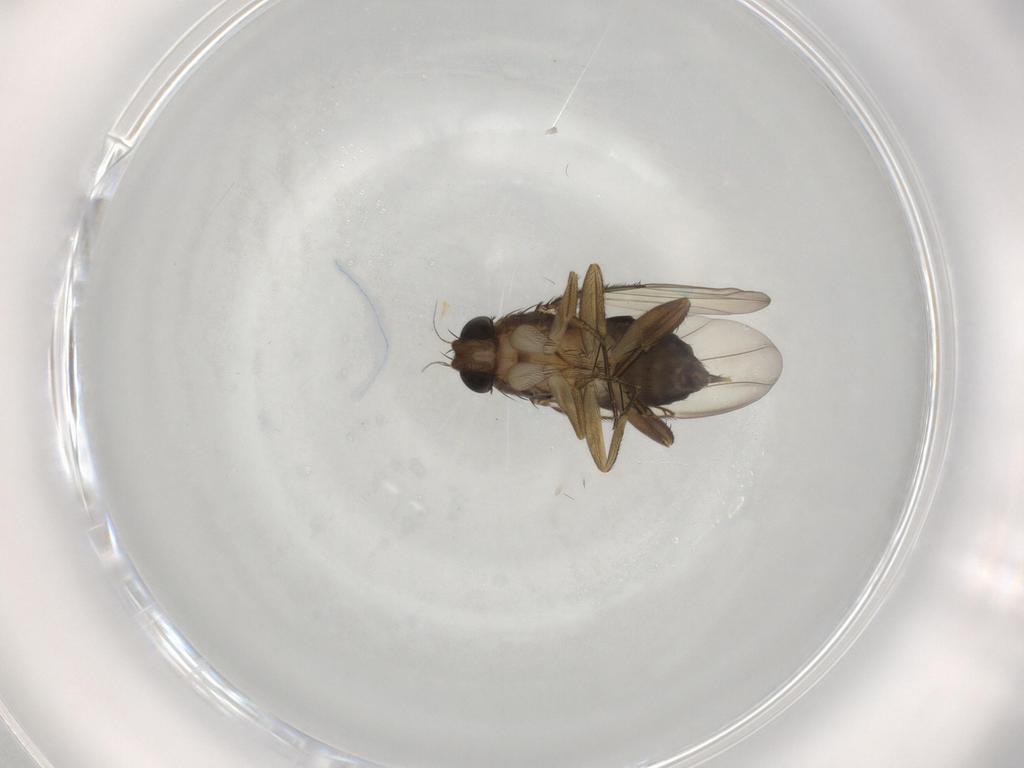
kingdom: Animalia
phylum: Arthropoda
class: Insecta
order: Diptera
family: Phoridae
